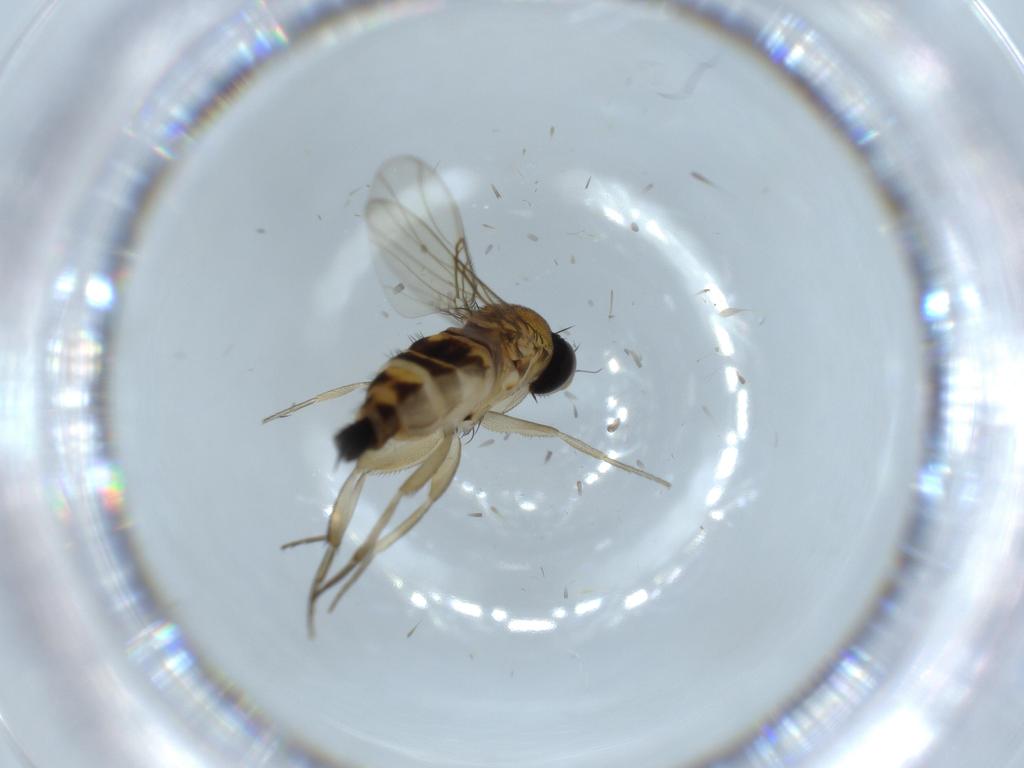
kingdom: Animalia
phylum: Arthropoda
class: Insecta
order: Diptera
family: Phoridae
